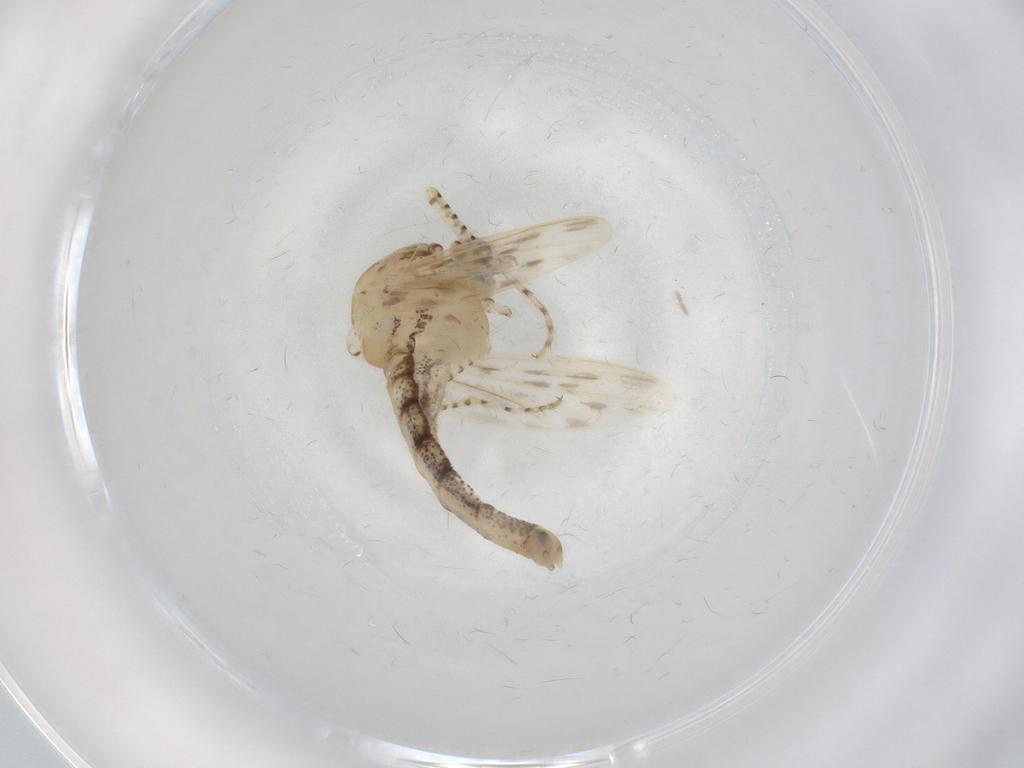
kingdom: Animalia
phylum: Arthropoda
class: Insecta
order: Diptera
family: Chaoboridae
